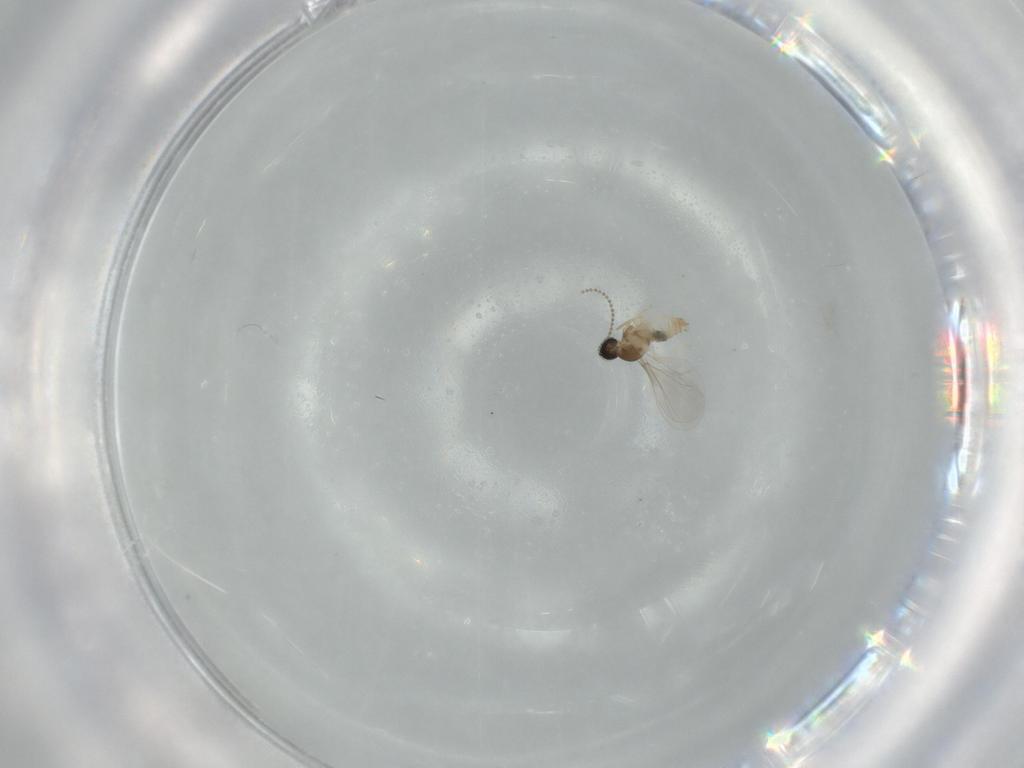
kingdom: Animalia
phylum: Arthropoda
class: Insecta
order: Diptera
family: Cecidomyiidae
